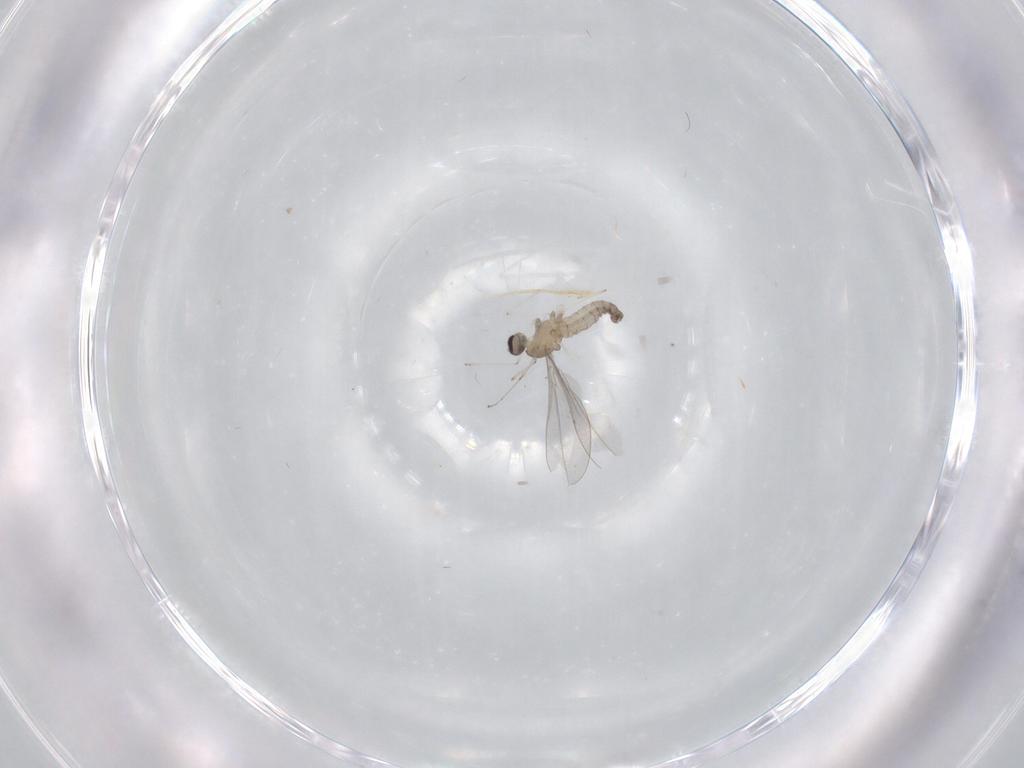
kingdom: Animalia
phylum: Arthropoda
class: Insecta
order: Diptera
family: Cecidomyiidae
